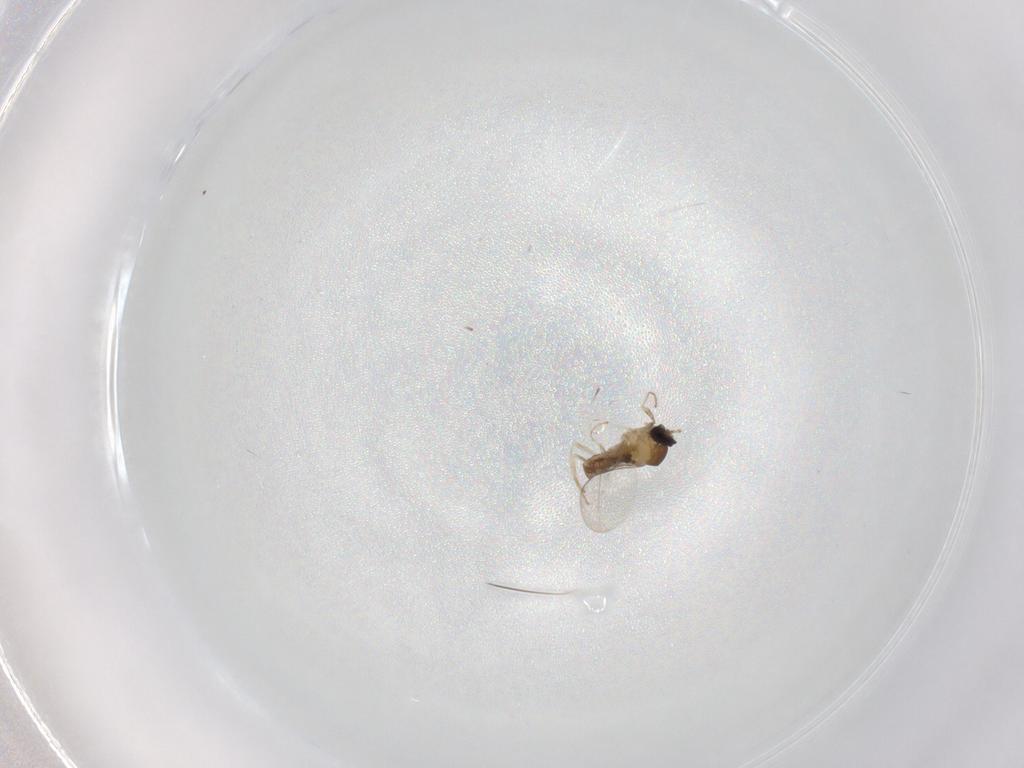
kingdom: Animalia
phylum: Arthropoda
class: Insecta
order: Diptera
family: Cecidomyiidae
